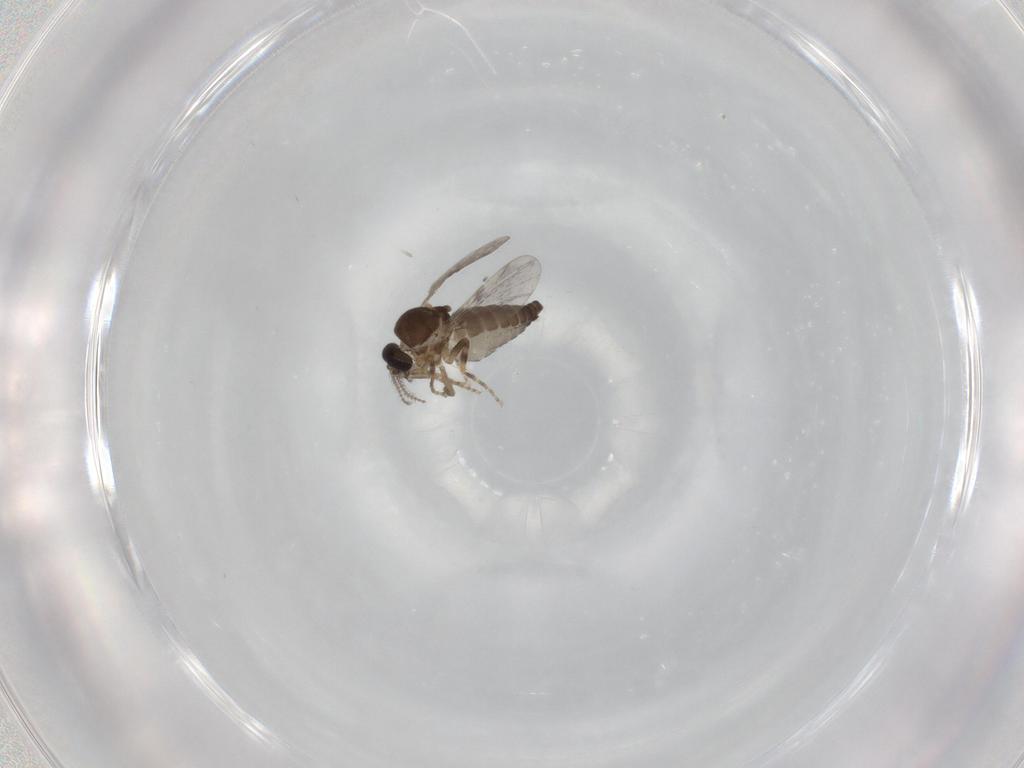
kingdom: Animalia
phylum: Arthropoda
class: Insecta
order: Diptera
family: Ceratopogonidae
